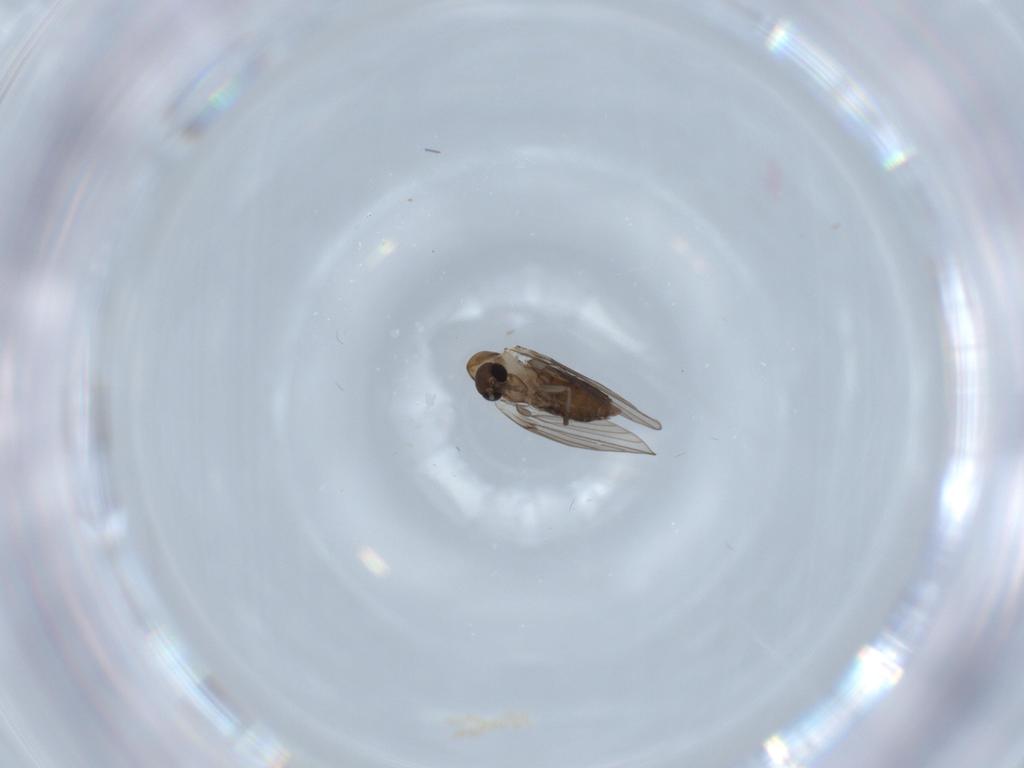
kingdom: Animalia
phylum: Arthropoda
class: Insecta
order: Diptera
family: Psychodidae
